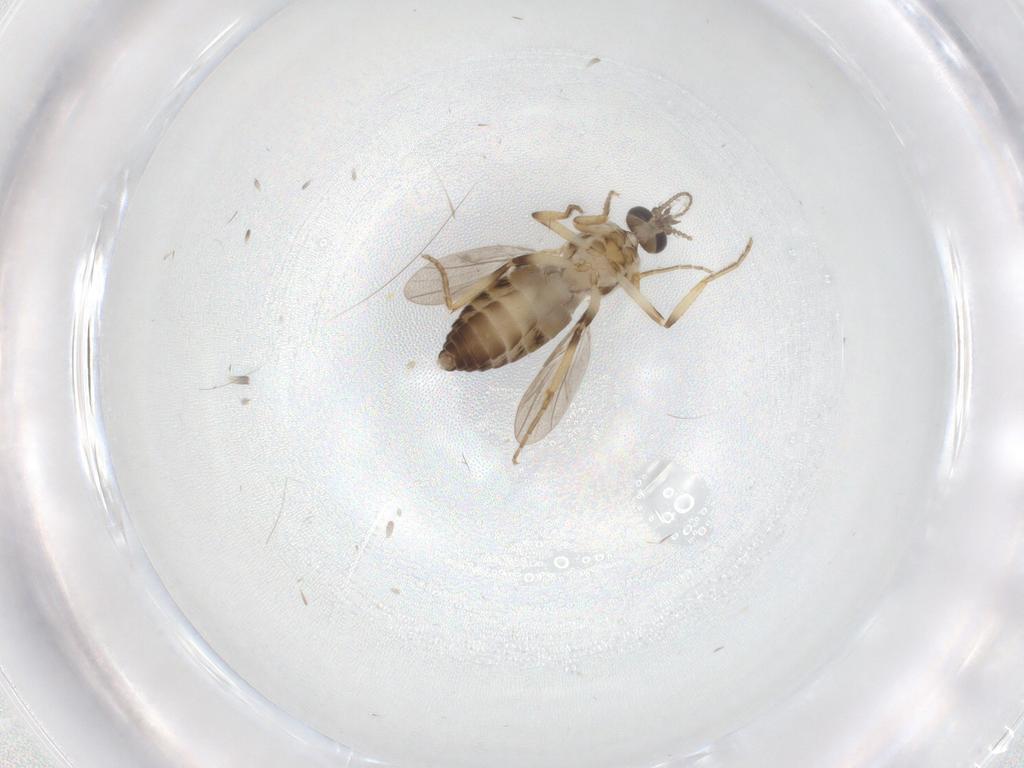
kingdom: Animalia
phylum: Arthropoda
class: Insecta
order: Diptera
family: Ceratopogonidae
